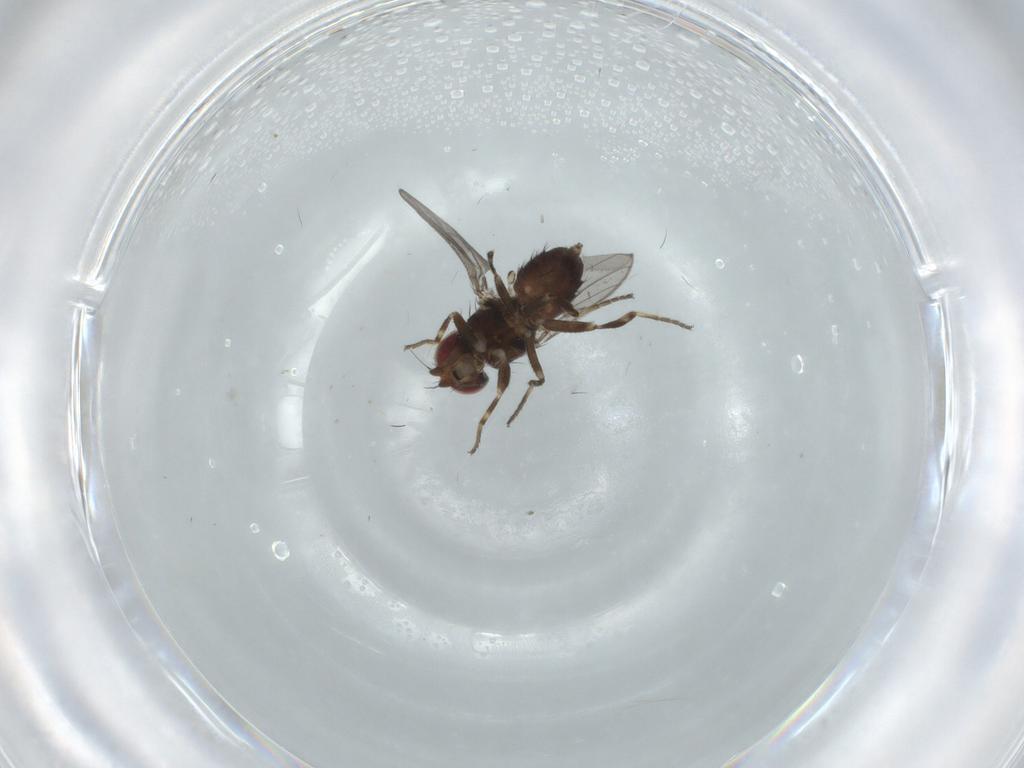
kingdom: Animalia
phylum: Arthropoda
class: Insecta
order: Diptera
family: Chloropidae
